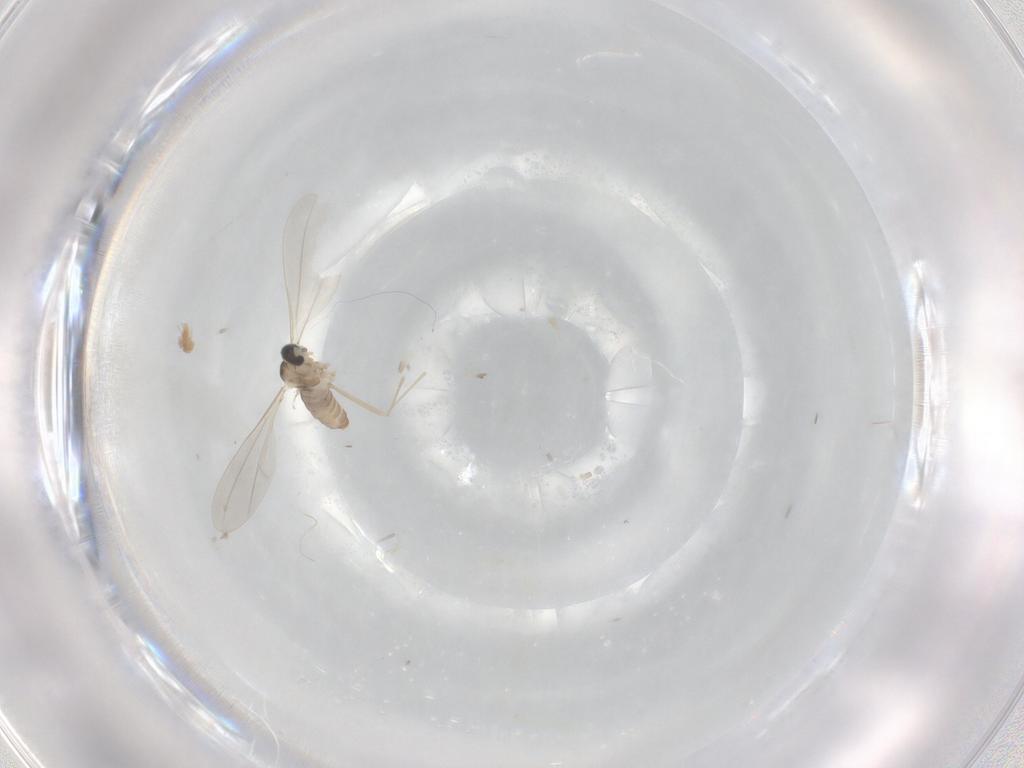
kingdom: Animalia
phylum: Arthropoda
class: Insecta
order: Diptera
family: Cecidomyiidae
